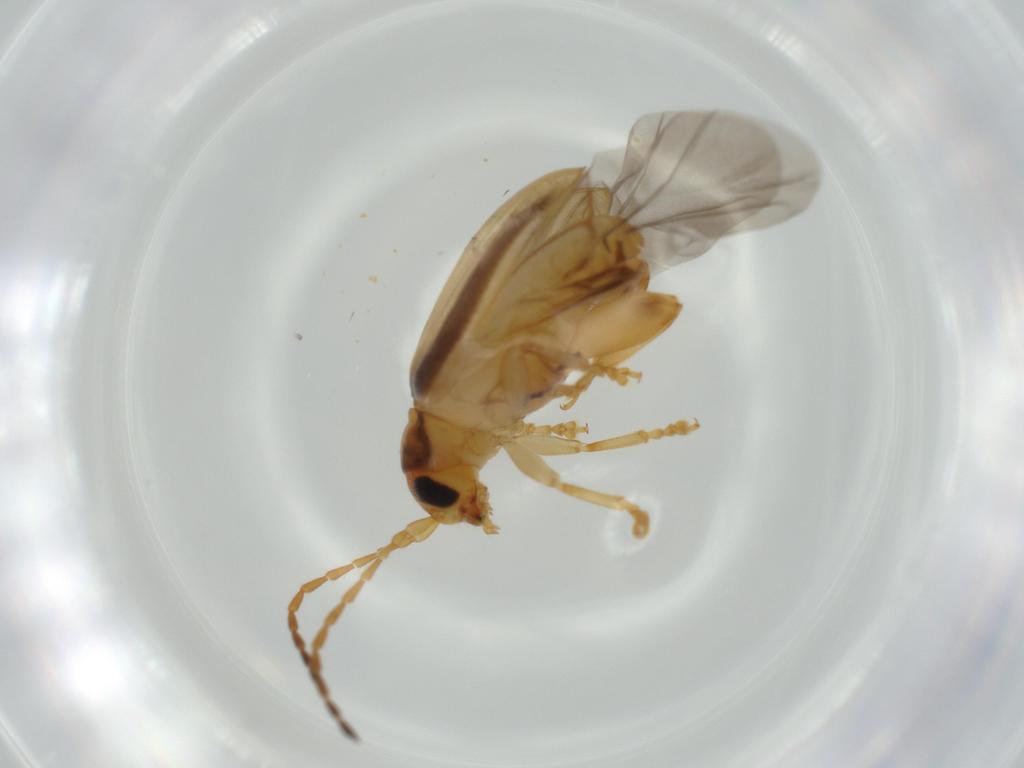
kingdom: Animalia
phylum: Arthropoda
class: Insecta
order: Coleoptera
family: Chrysomelidae
